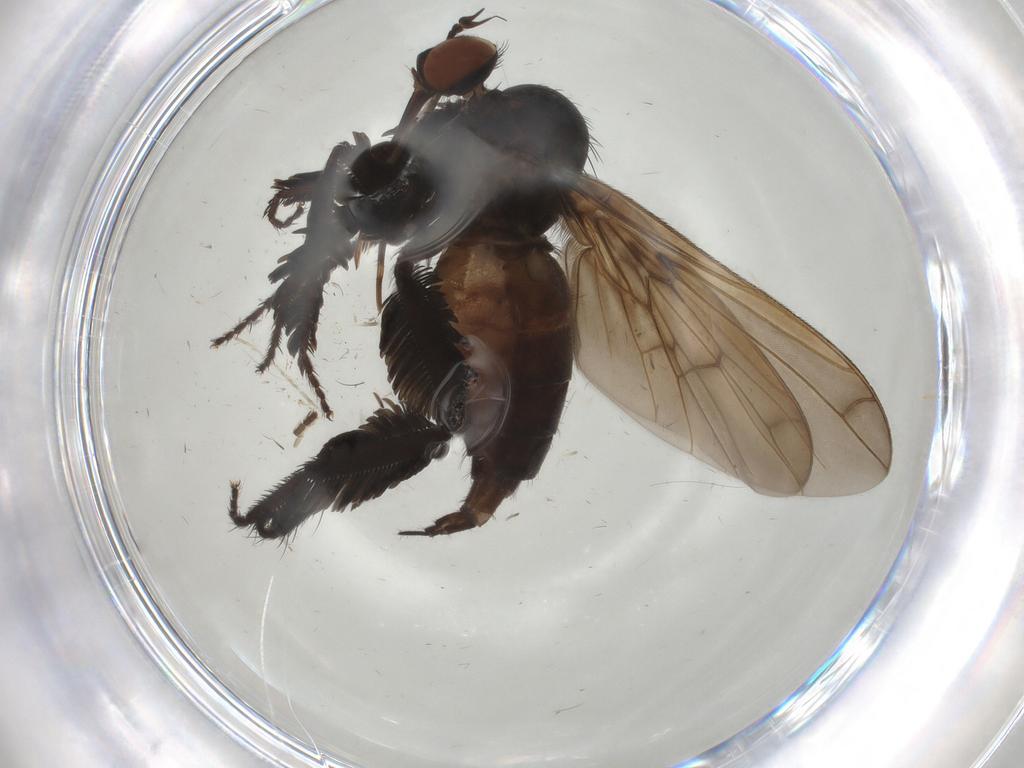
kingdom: Animalia
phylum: Arthropoda
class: Insecta
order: Diptera
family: Empididae
